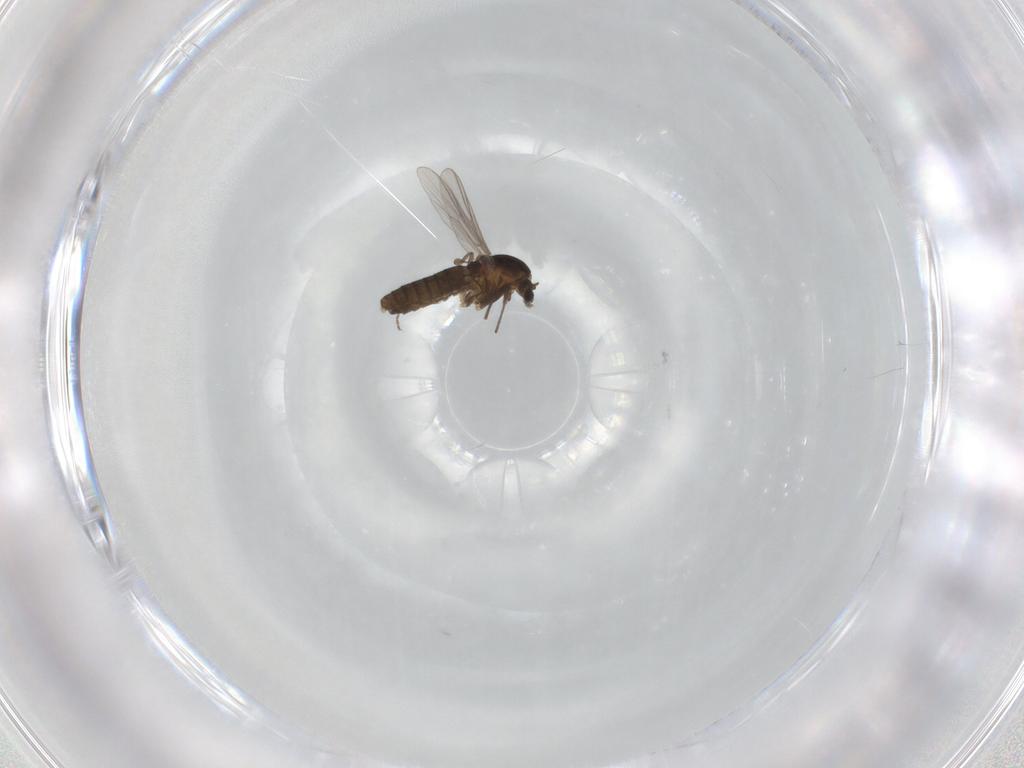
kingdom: Animalia
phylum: Arthropoda
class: Insecta
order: Diptera
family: Chironomidae
